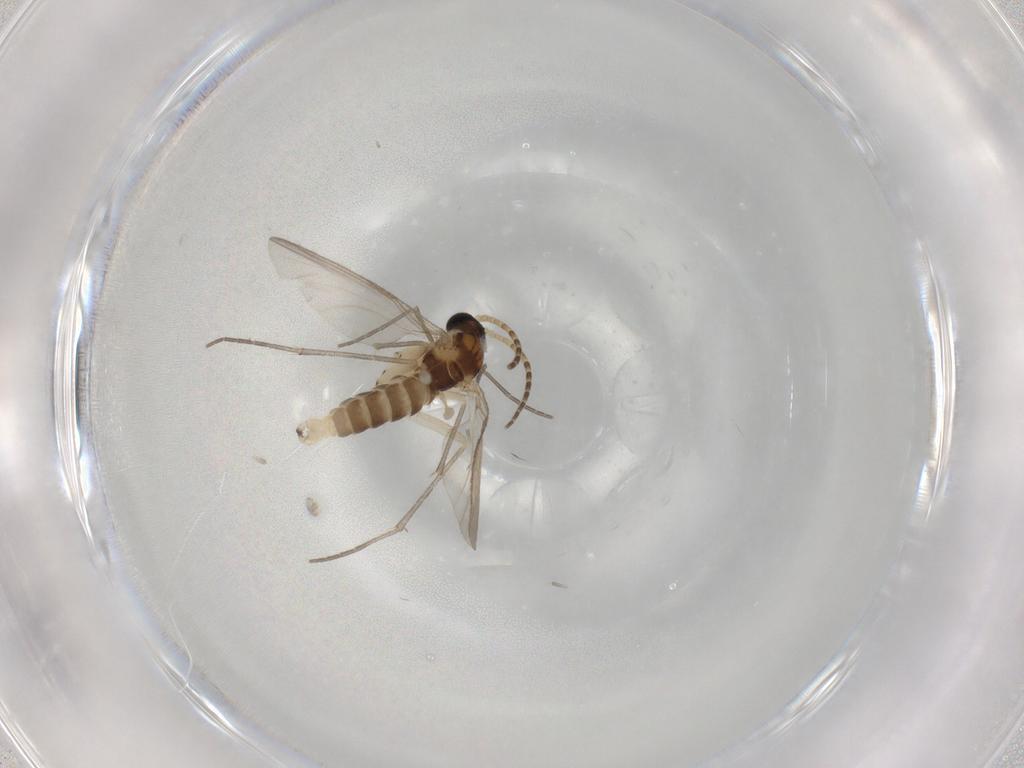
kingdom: Animalia
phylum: Arthropoda
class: Insecta
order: Diptera
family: Sciaridae
